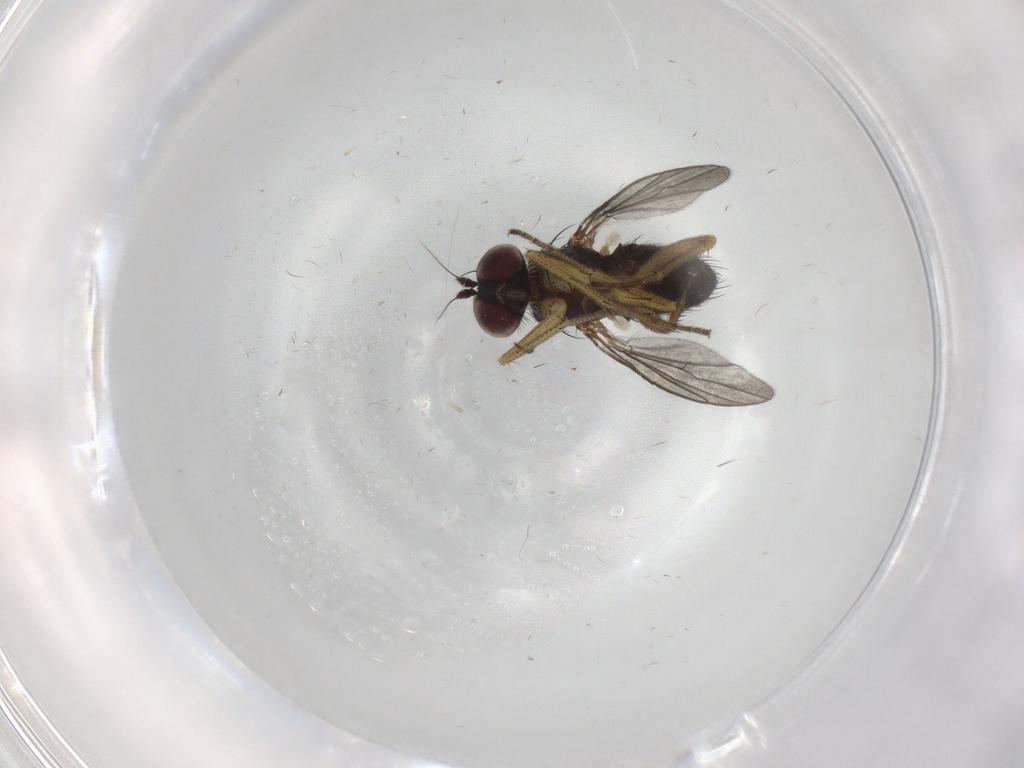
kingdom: Animalia
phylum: Arthropoda
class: Insecta
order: Diptera
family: Dolichopodidae
